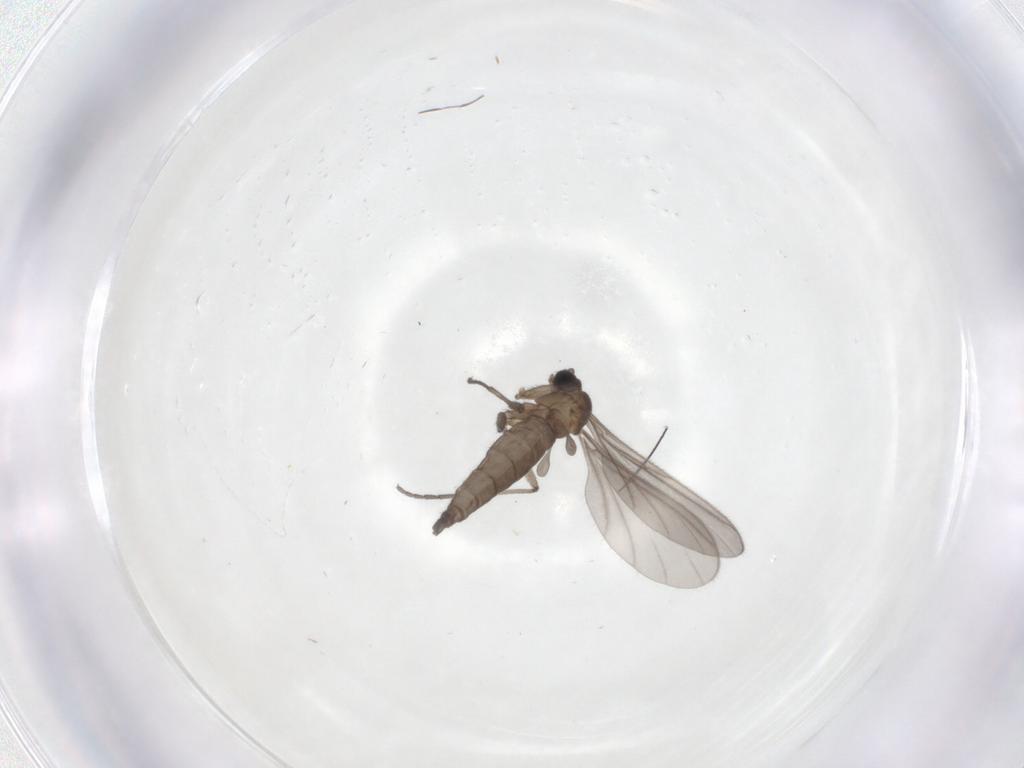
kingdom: Animalia
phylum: Arthropoda
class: Insecta
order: Diptera
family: Sciaridae
